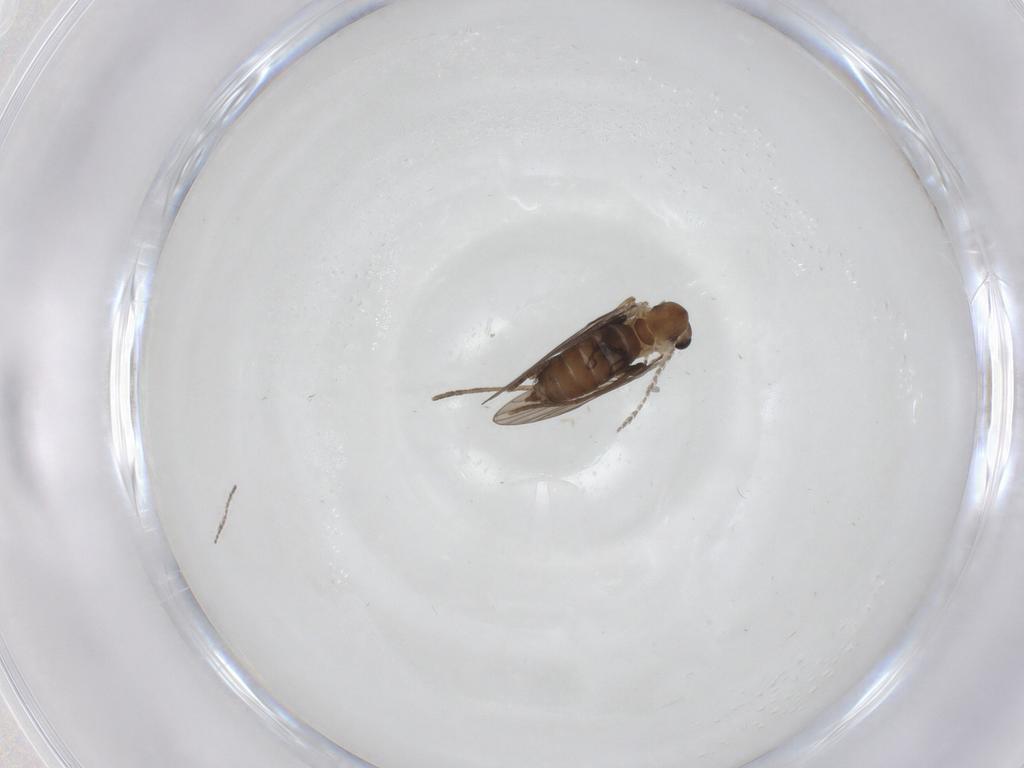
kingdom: Animalia
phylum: Arthropoda
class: Insecta
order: Diptera
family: Psychodidae
